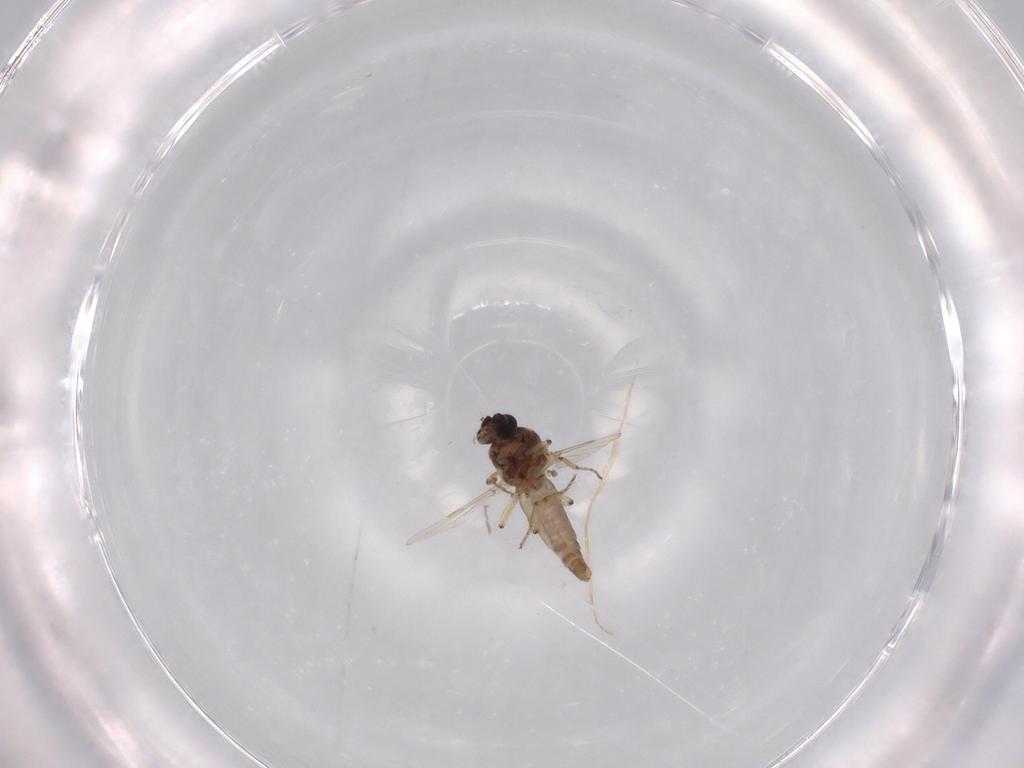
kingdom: Animalia
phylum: Arthropoda
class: Insecta
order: Diptera
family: Ceratopogonidae
